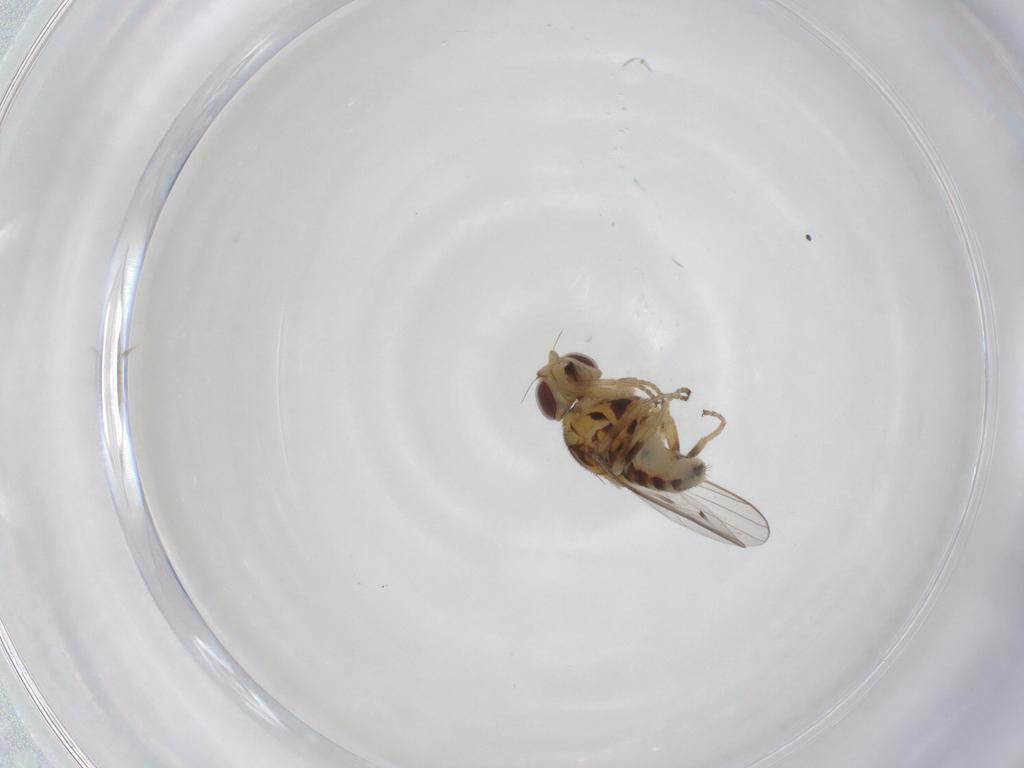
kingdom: Animalia
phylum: Arthropoda
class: Insecta
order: Diptera
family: Chloropidae
